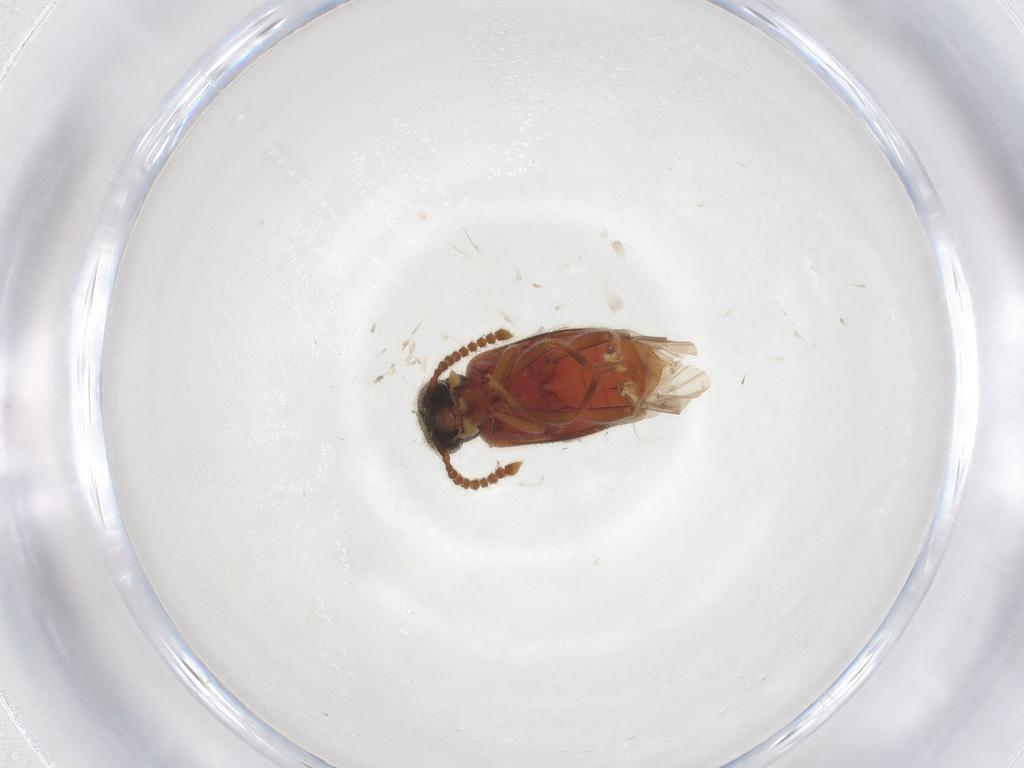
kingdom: Animalia
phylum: Arthropoda
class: Insecta
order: Coleoptera
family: Aderidae
